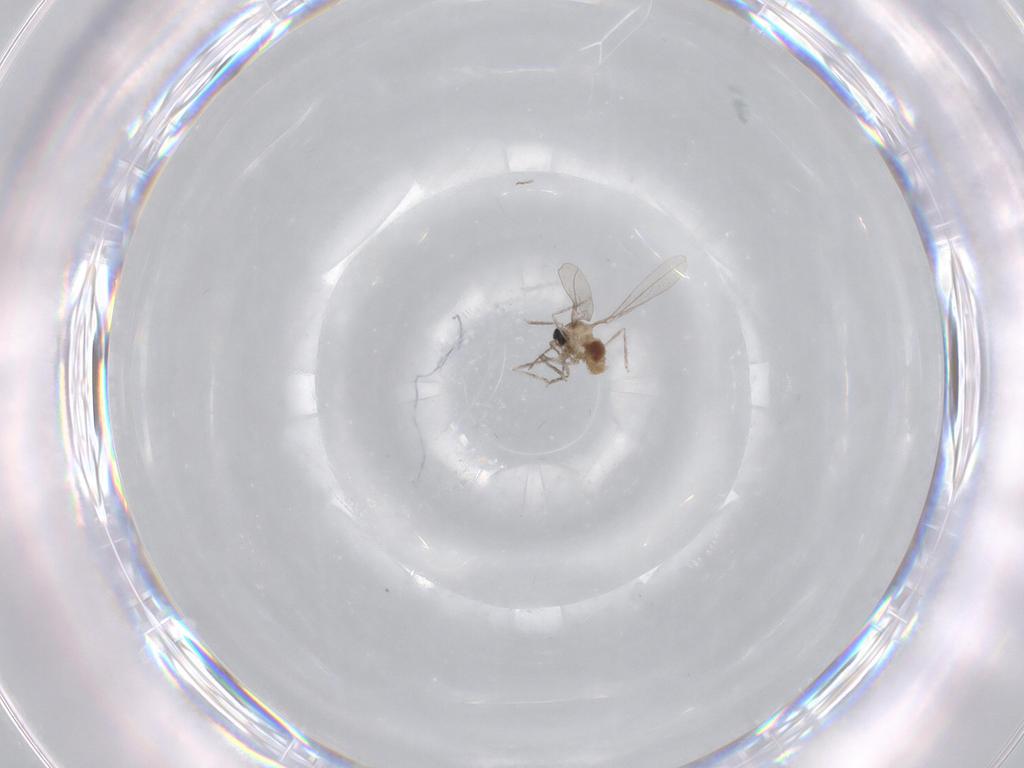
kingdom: Animalia
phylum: Arthropoda
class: Insecta
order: Diptera
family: Cecidomyiidae
